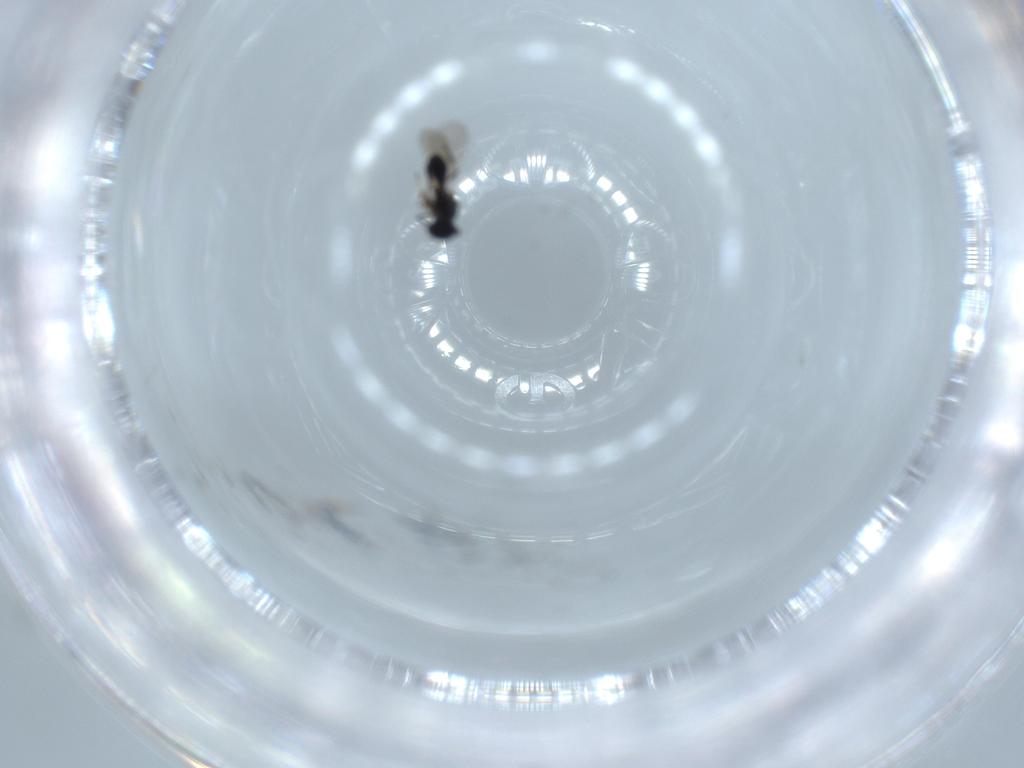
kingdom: Animalia
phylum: Arthropoda
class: Insecta
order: Hymenoptera
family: Platygastridae
